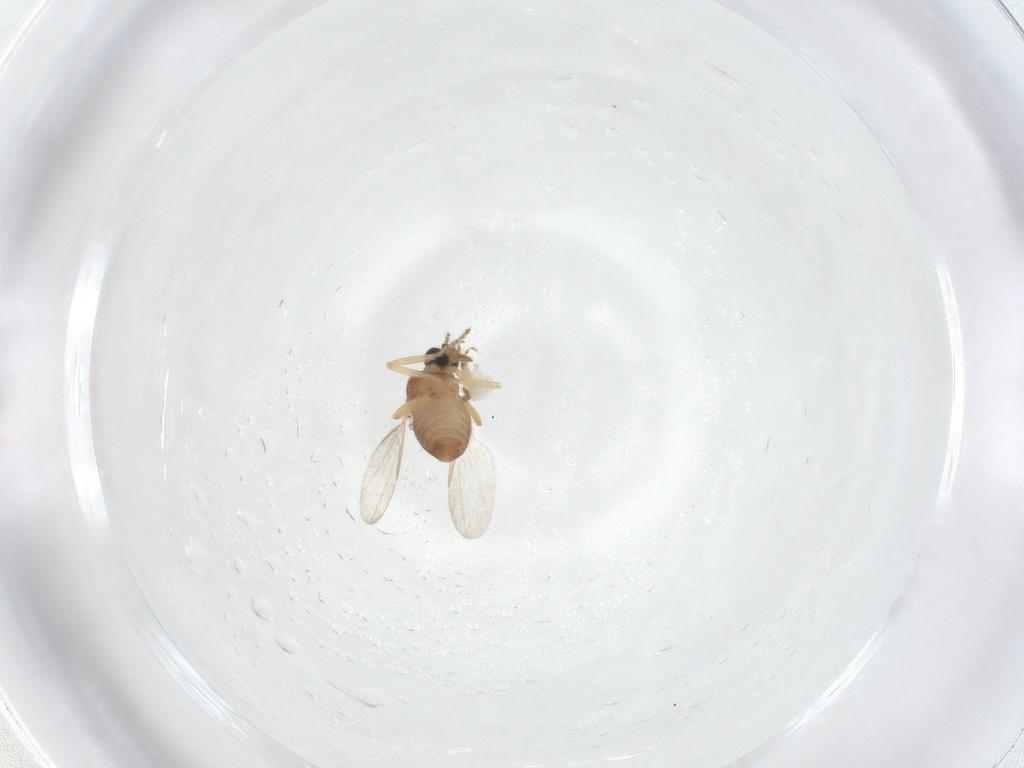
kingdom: Animalia
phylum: Arthropoda
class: Insecta
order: Diptera
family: Sciaridae
